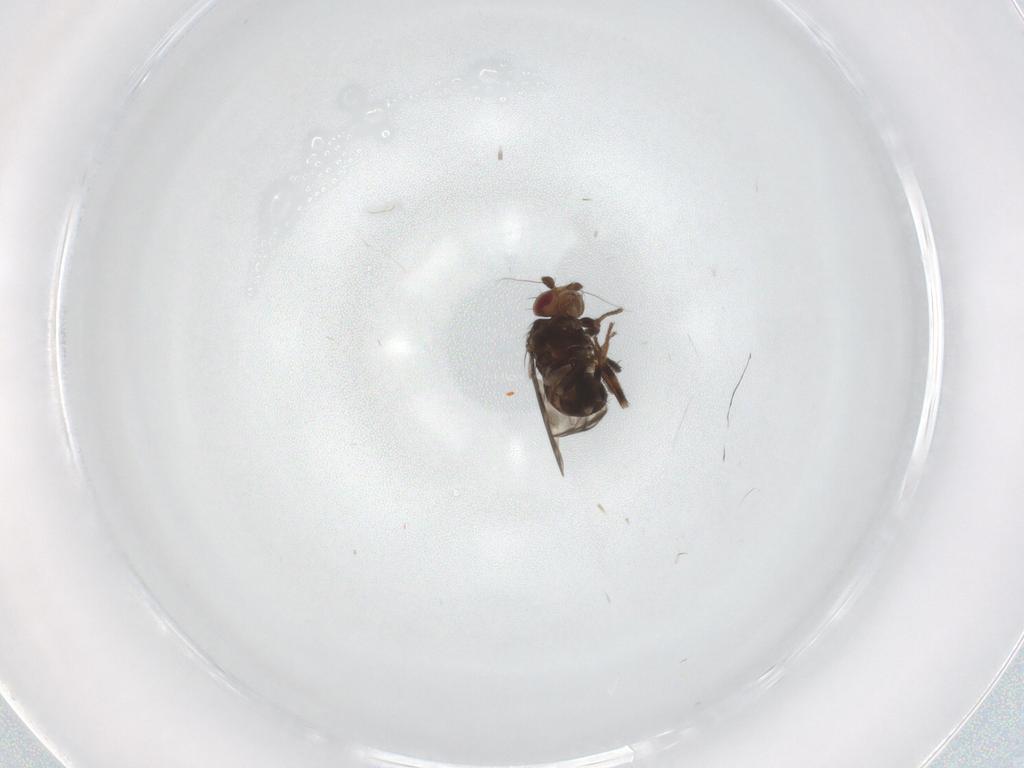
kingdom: Animalia
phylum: Arthropoda
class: Insecta
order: Diptera
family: Sphaeroceridae
